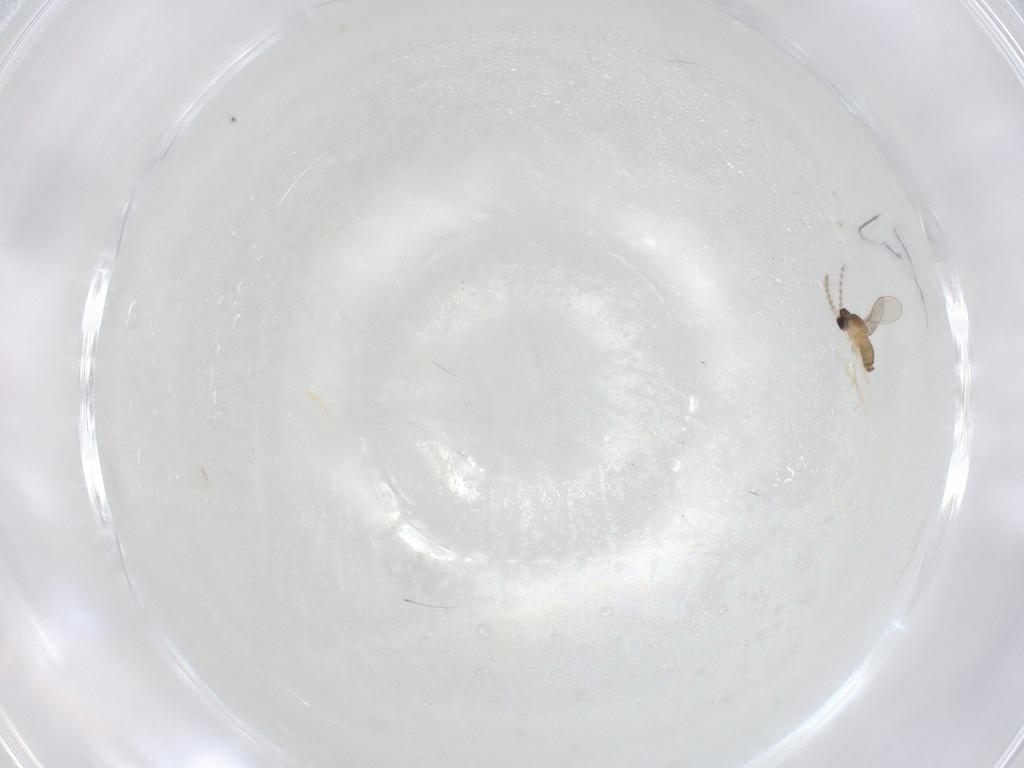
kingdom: Animalia
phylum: Arthropoda
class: Insecta
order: Diptera
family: Cecidomyiidae
